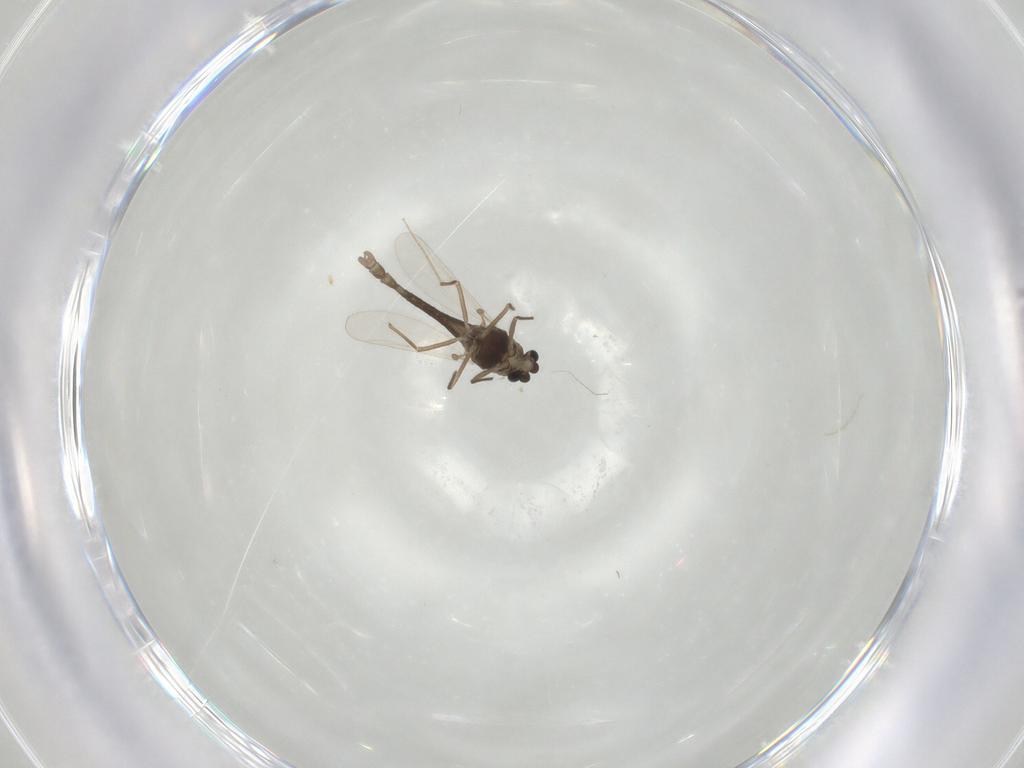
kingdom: Animalia
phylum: Arthropoda
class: Insecta
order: Diptera
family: Chironomidae
